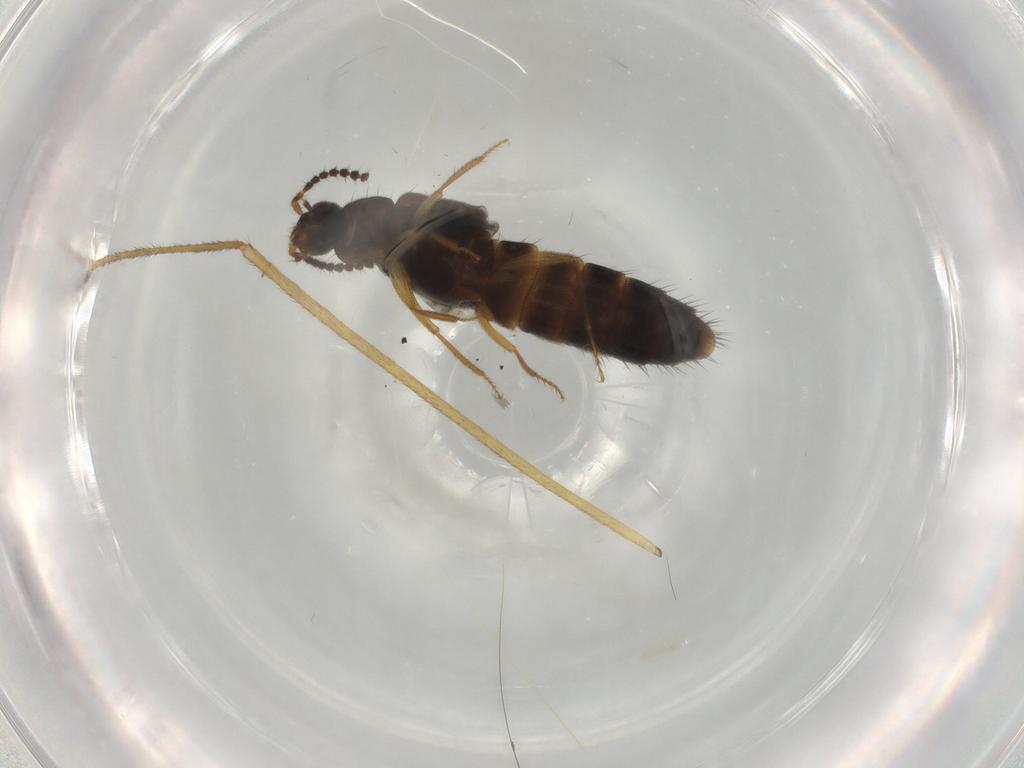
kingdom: Animalia
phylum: Arthropoda
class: Insecta
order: Coleoptera
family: Staphylinidae
